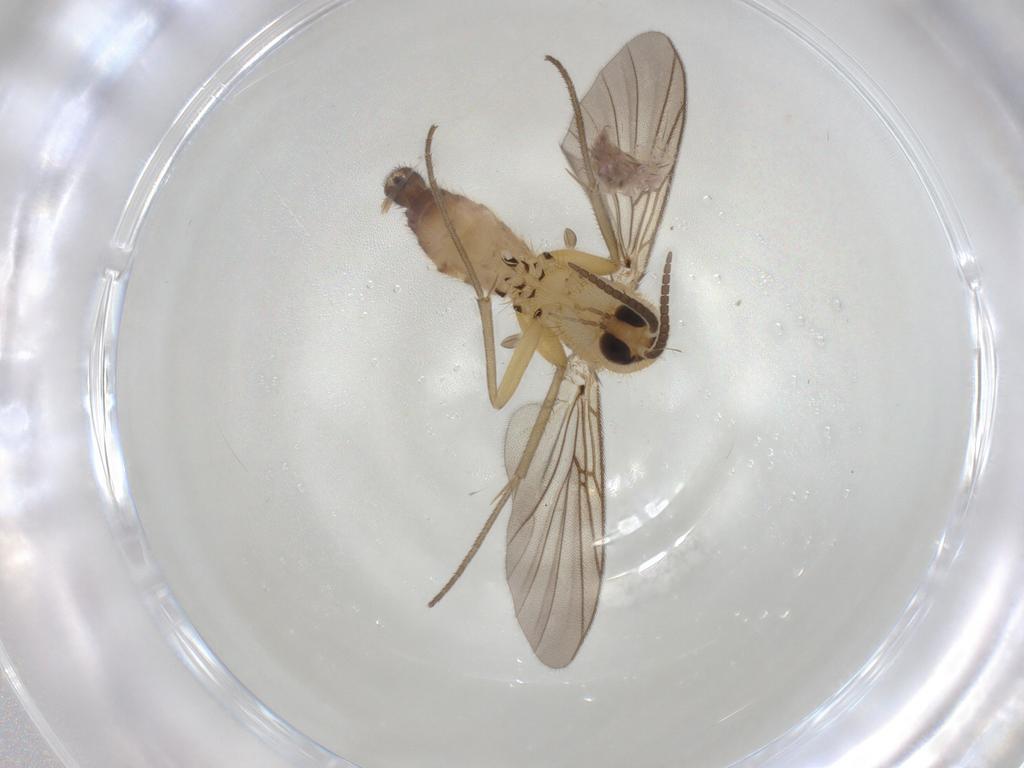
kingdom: Animalia
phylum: Arthropoda
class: Insecta
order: Diptera
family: Mycetophilidae
